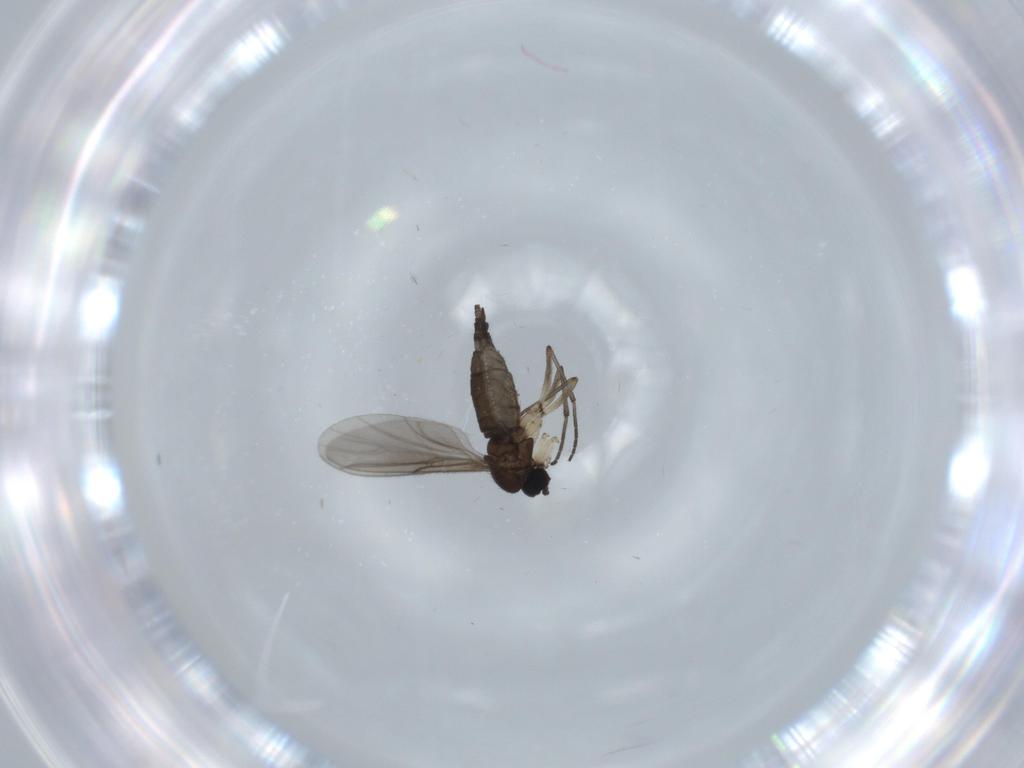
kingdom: Animalia
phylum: Arthropoda
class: Insecta
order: Diptera
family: Sciaridae
